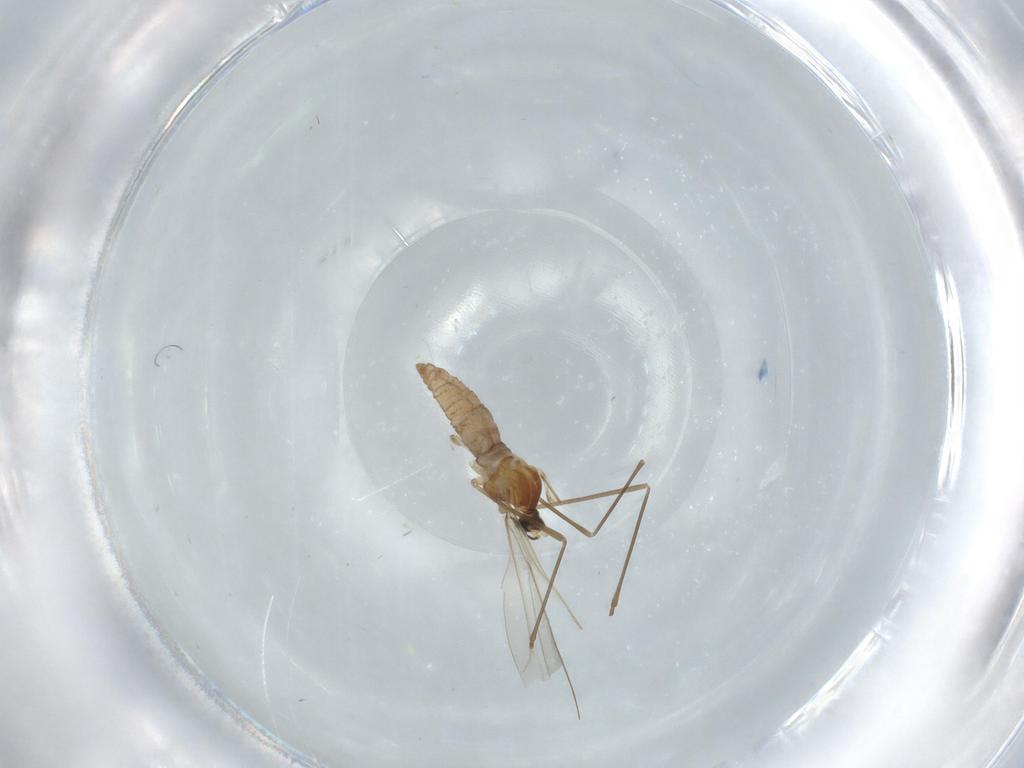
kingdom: Animalia
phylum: Arthropoda
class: Insecta
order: Diptera
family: Cecidomyiidae
